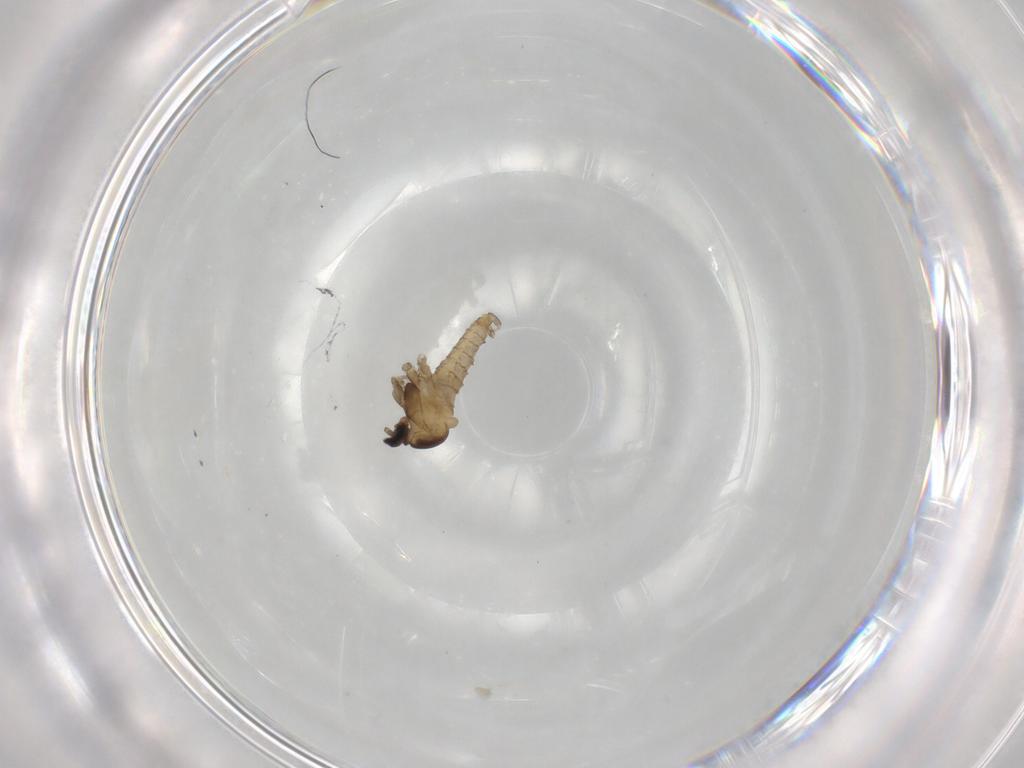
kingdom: Animalia
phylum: Arthropoda
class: Insecta
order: Diptera
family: Cecidomyiidae
